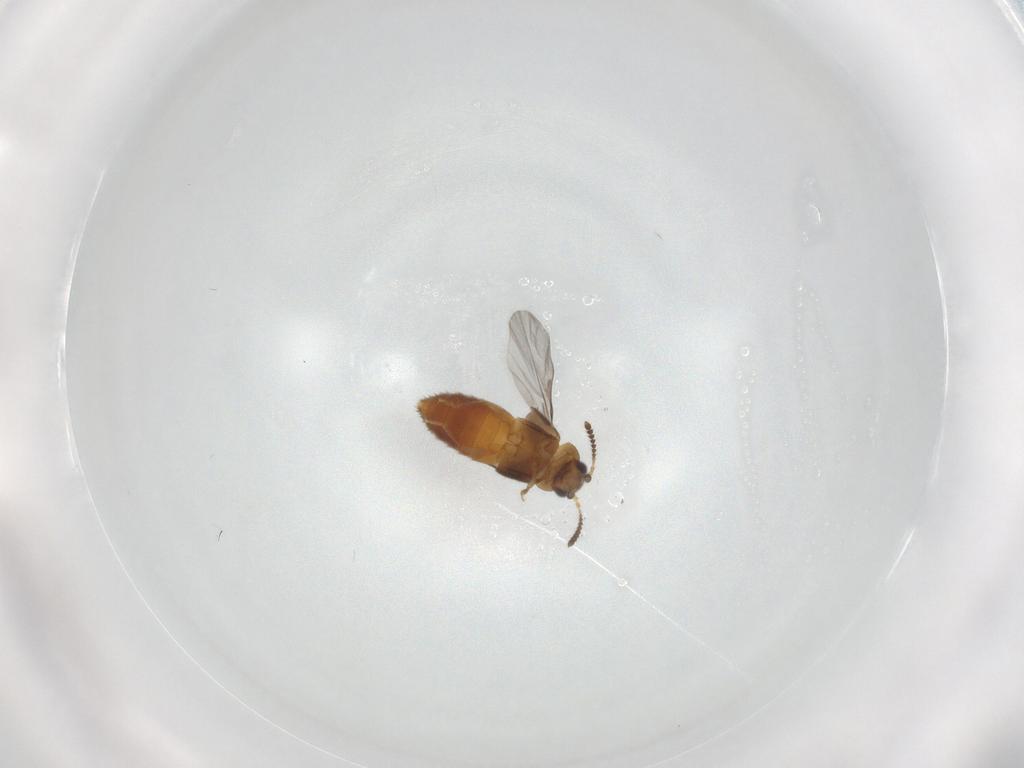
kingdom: Animalia
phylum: Arthropoda
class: Insecta
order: Coleoptera
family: Staphylinidae
